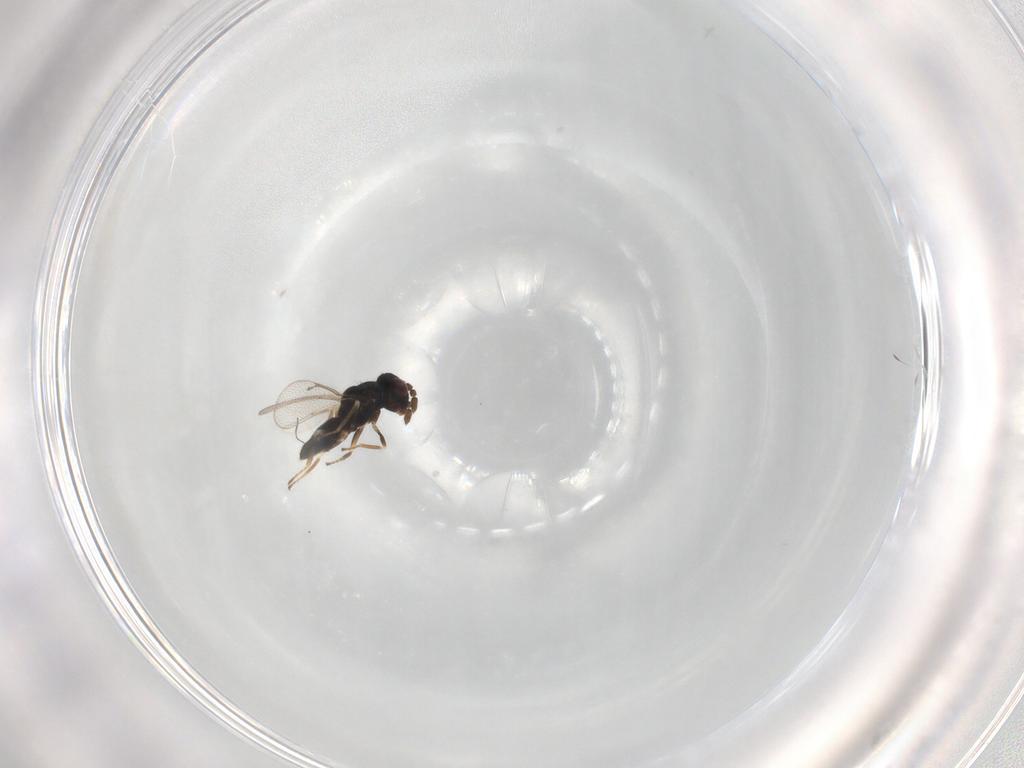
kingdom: Animalia
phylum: Arthropoda
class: Insecta
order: Hymenoptera
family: Eulophidae
